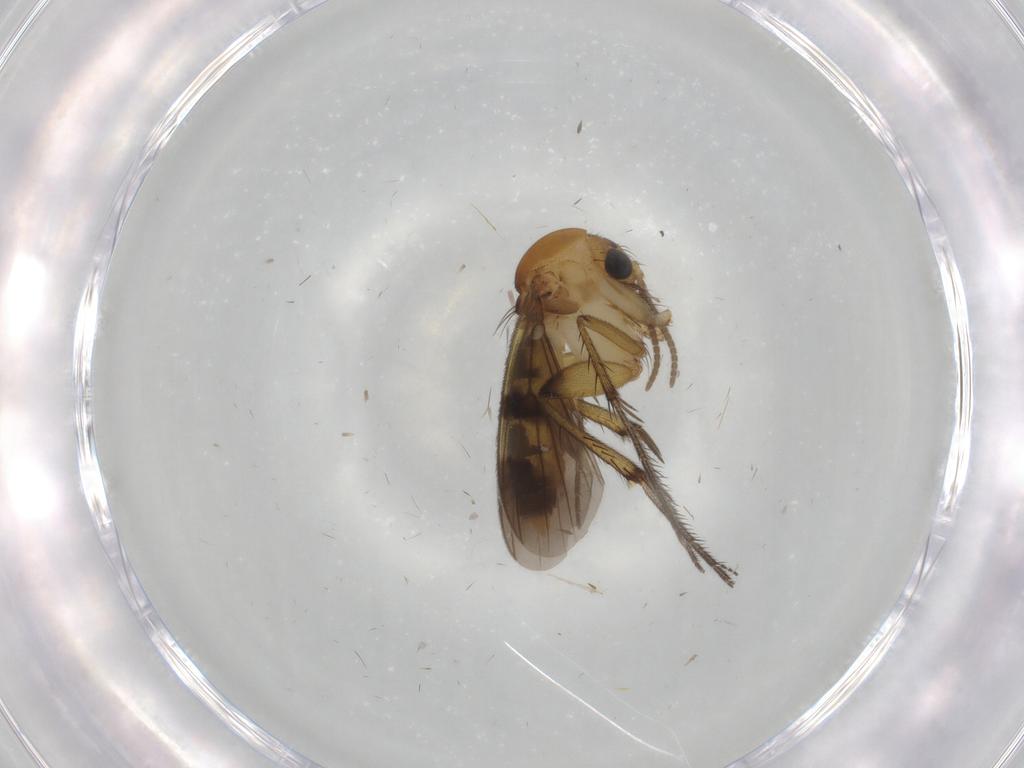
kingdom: Animalia
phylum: Arthropoda
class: Insecta
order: Diptera
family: Cecidomyiidae
